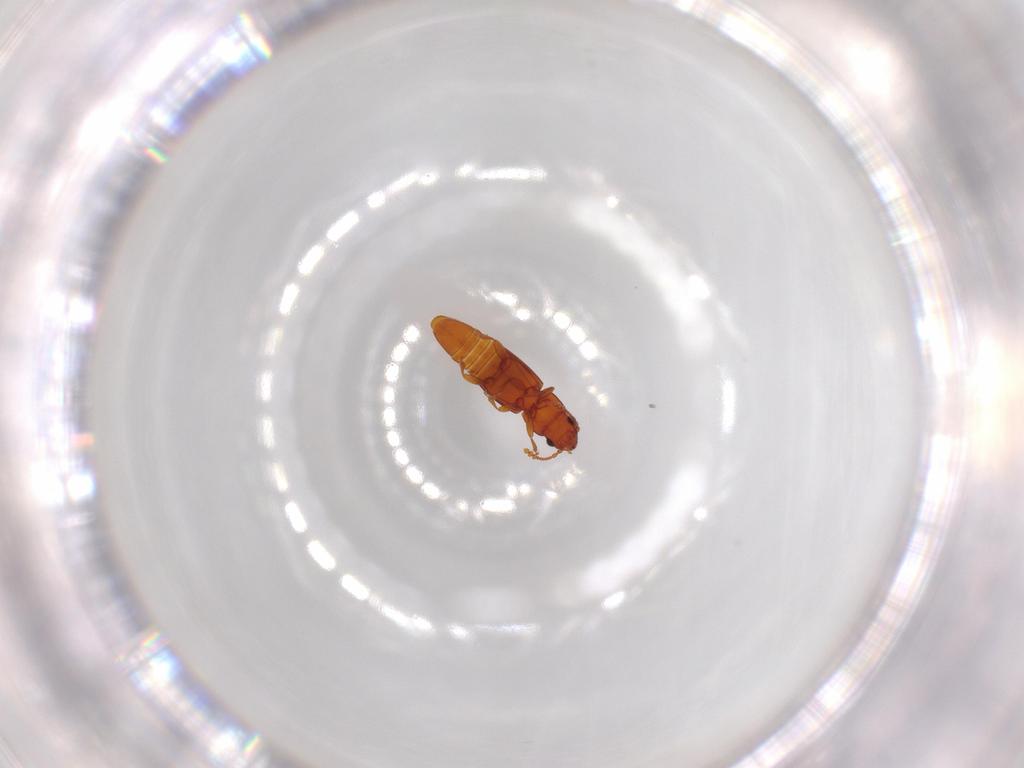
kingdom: Animalia
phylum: Arthropoda
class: Insecta
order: Coleoptera
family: Smicripidae
